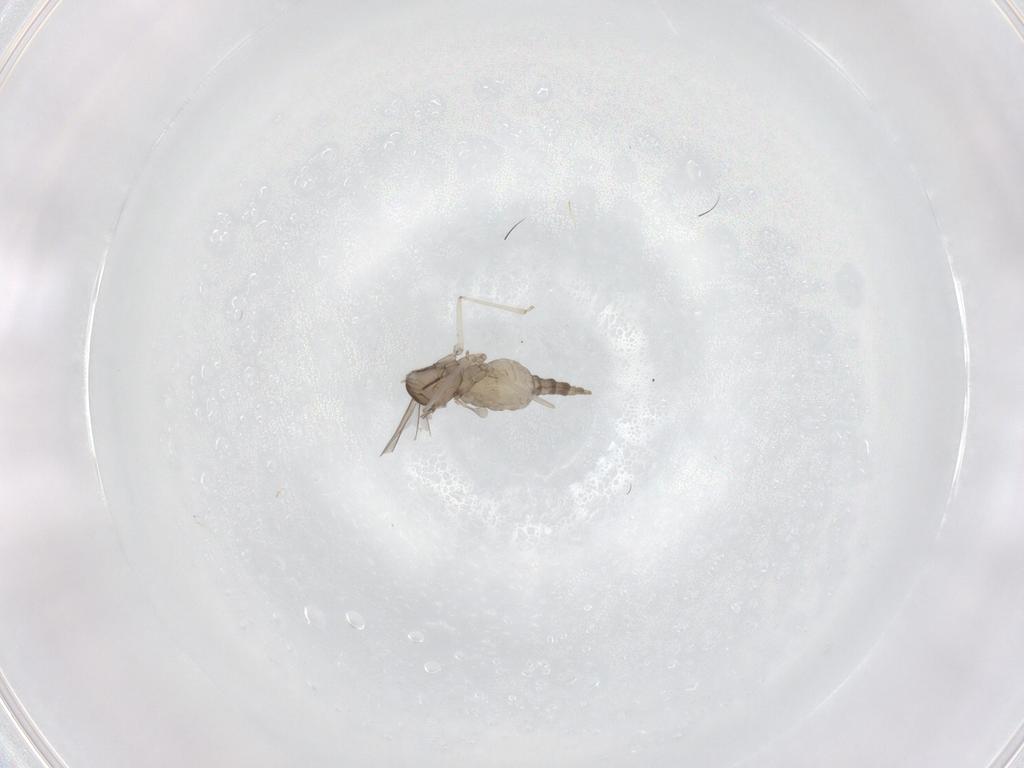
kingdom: Animalia
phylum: Arthropoda
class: Insecta
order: Diptera
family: Cecidomyiidae
